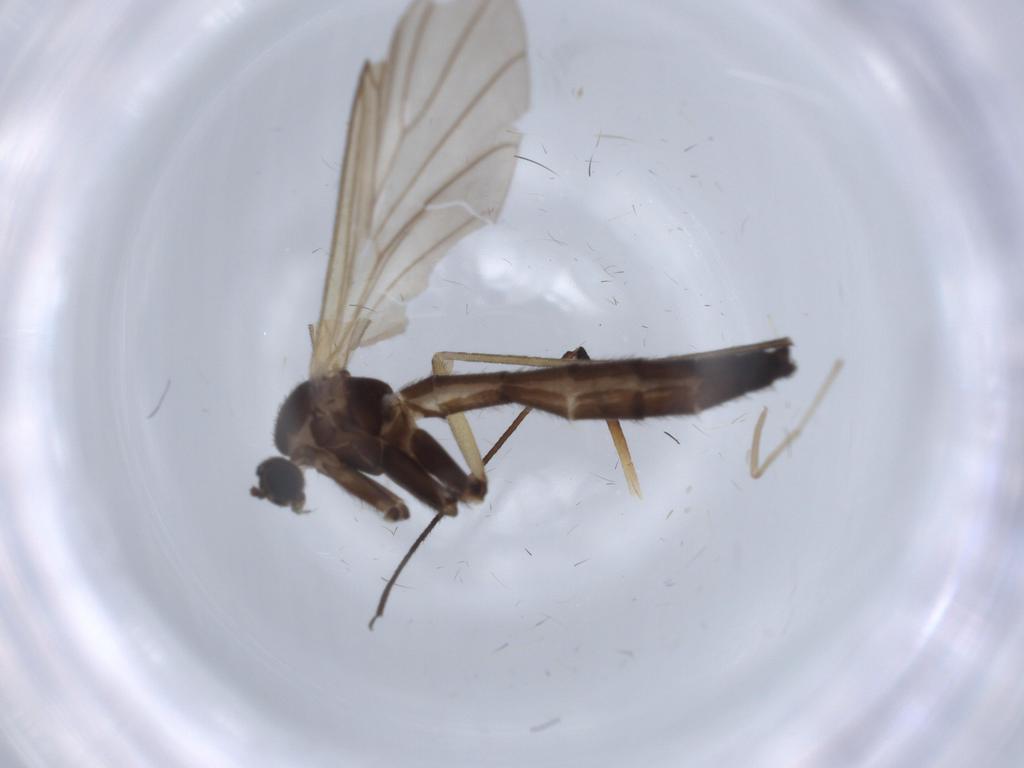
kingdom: Animalia
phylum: Arthropoda
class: Insecta
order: Diptera
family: Keroplatidae
